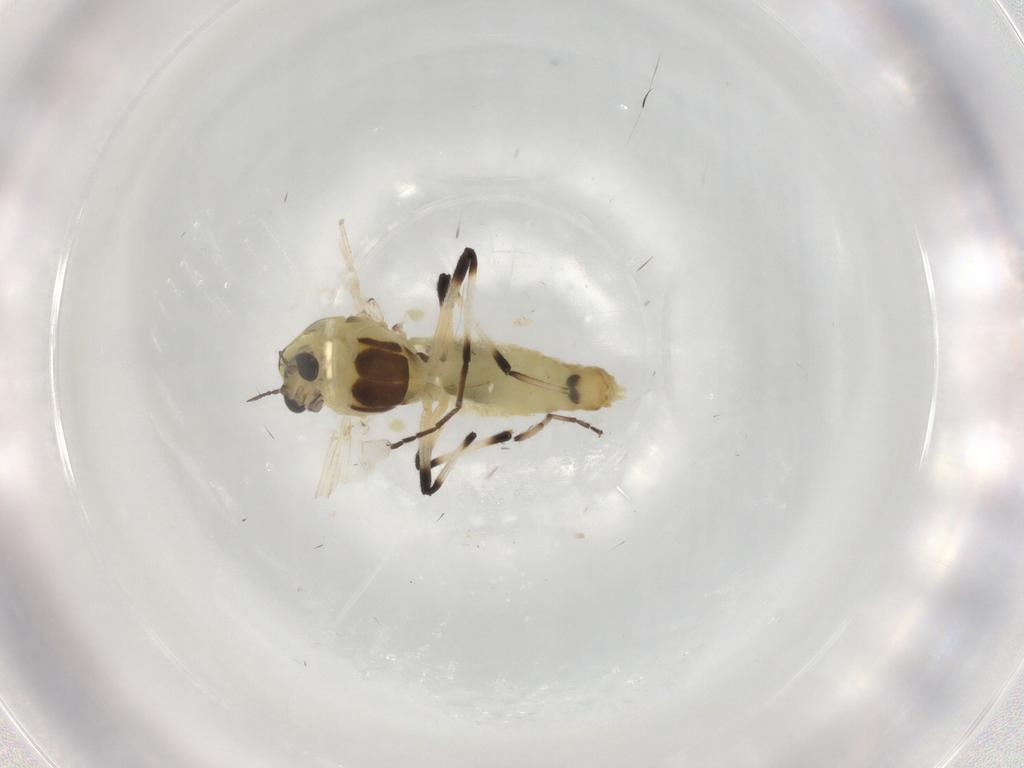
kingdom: Animalia
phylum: Arthropoda
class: Insecta
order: Diptera
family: Chironomidae
